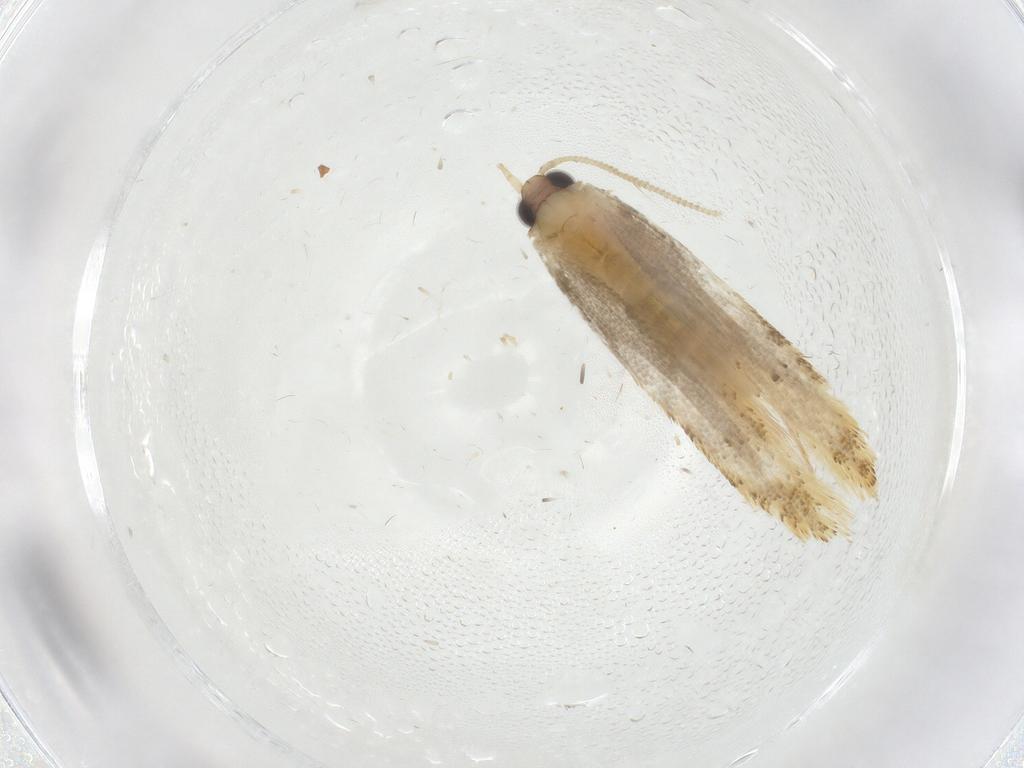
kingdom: Animalia
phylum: Arthropoda
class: Insecta
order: Lepidoptera
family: Tineidae
